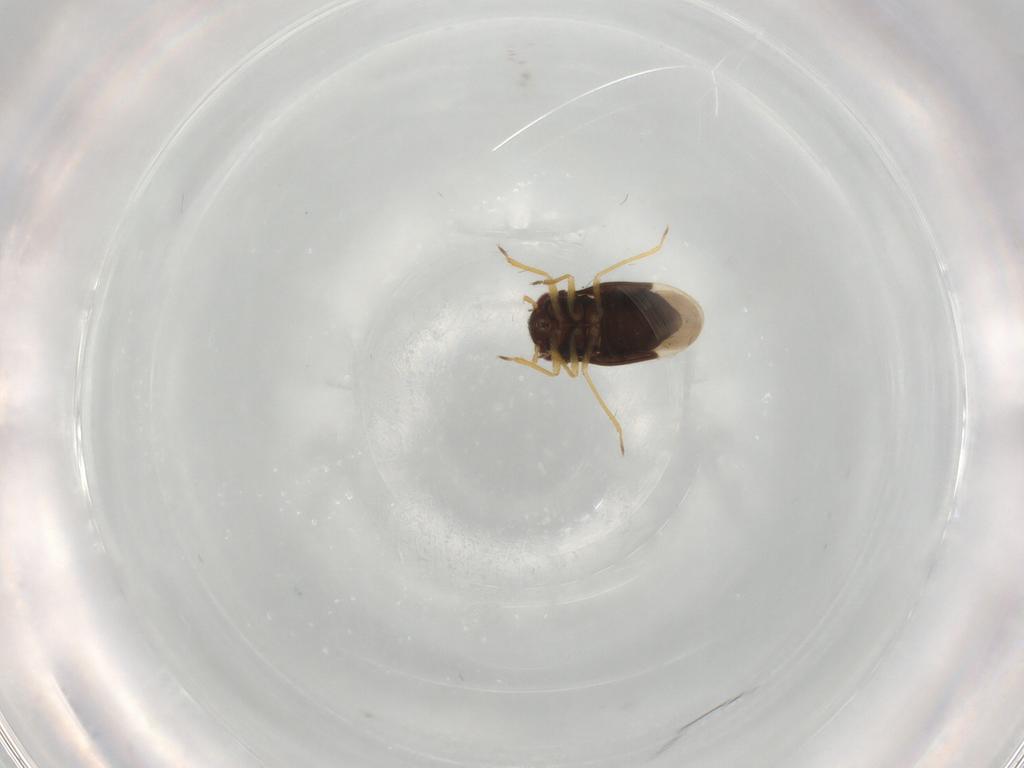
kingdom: Animalia
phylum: Arthropoda
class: Insecta
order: Hemiptera
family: Schizopteridae
